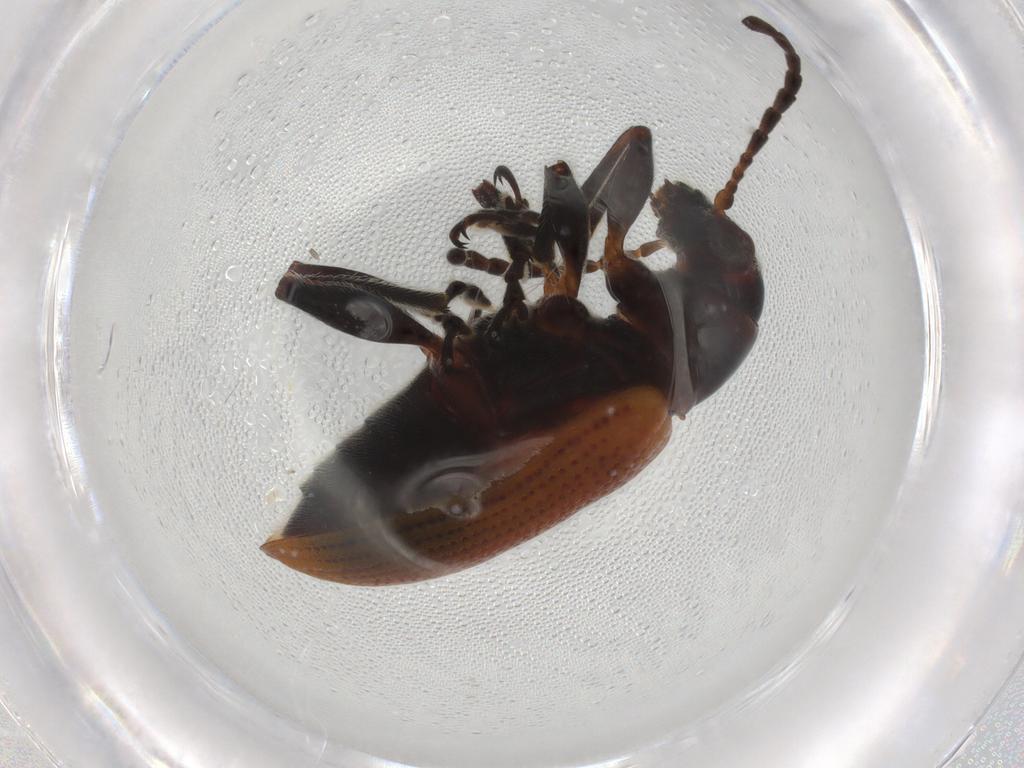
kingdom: Animalia
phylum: Arthropoda
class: Insecta
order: Coleoptera
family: Chrysomelidae
